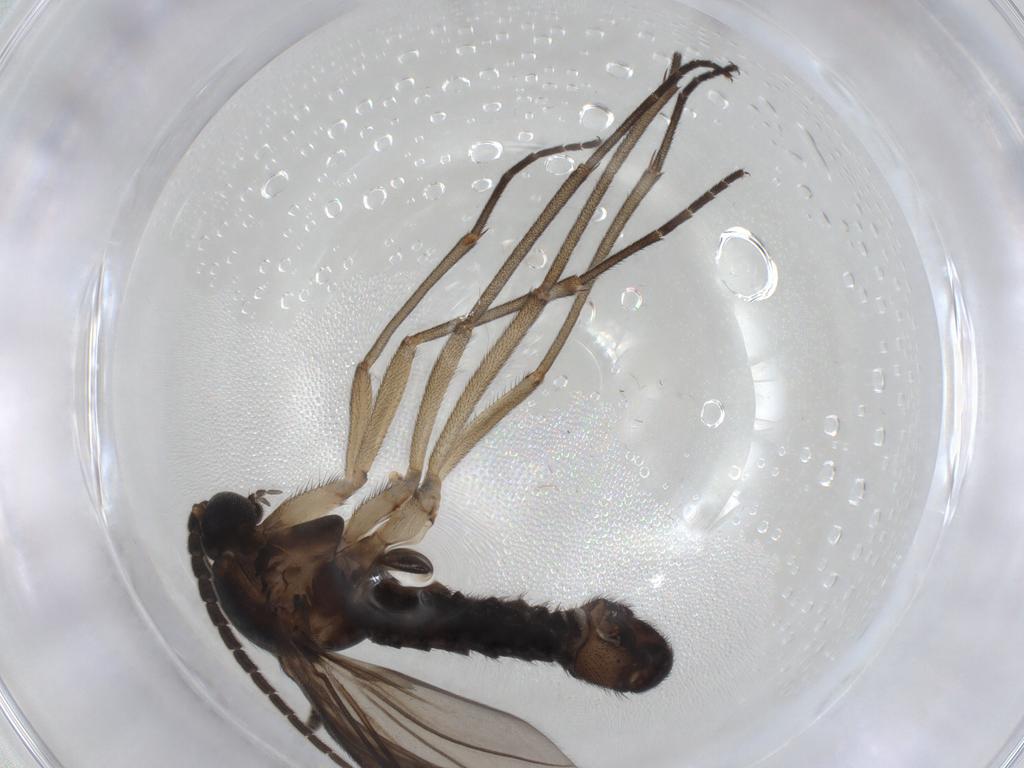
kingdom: Animalia
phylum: Arthropoda
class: Insecta
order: Diptera
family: Sciaridae
